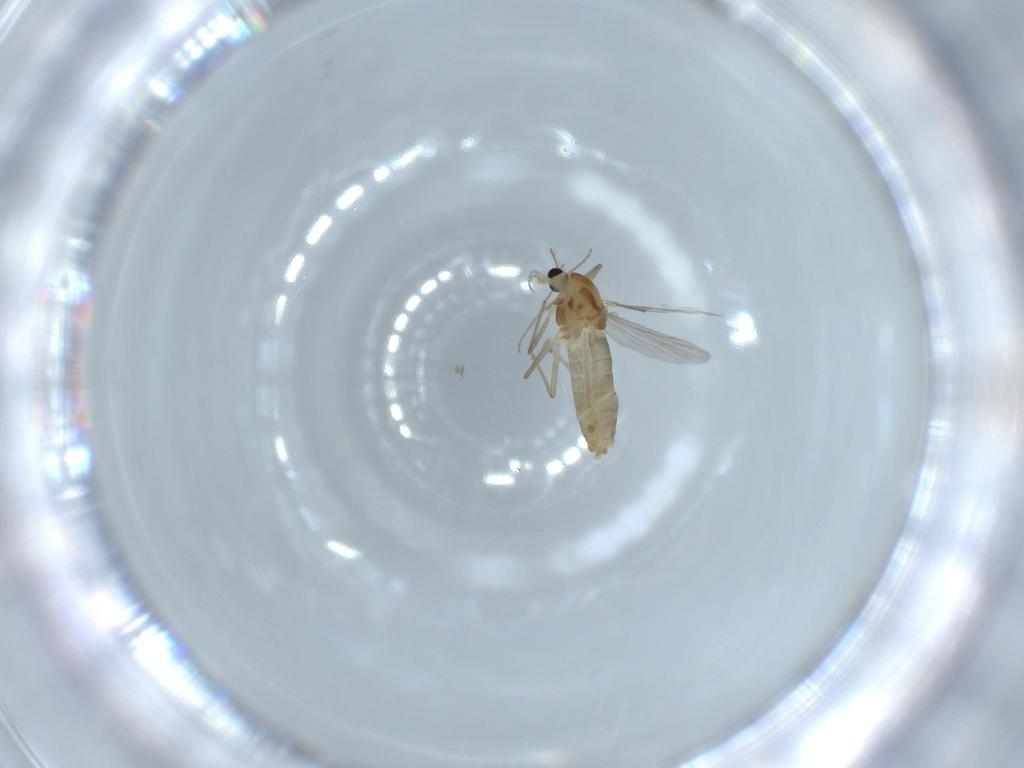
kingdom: Animalia
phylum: Arthropoda
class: Insecta
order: Diptera
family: Chironomidae
